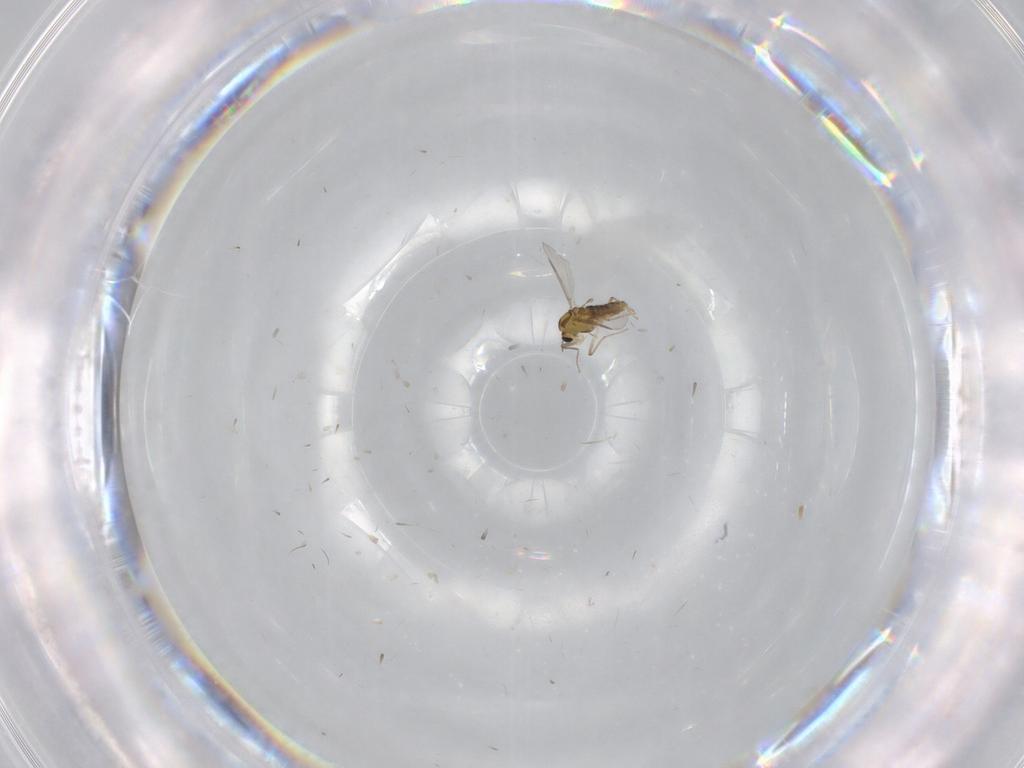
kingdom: Animalia
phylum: Arthropoda
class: Insecta
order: Diptera
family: Chironomidae
